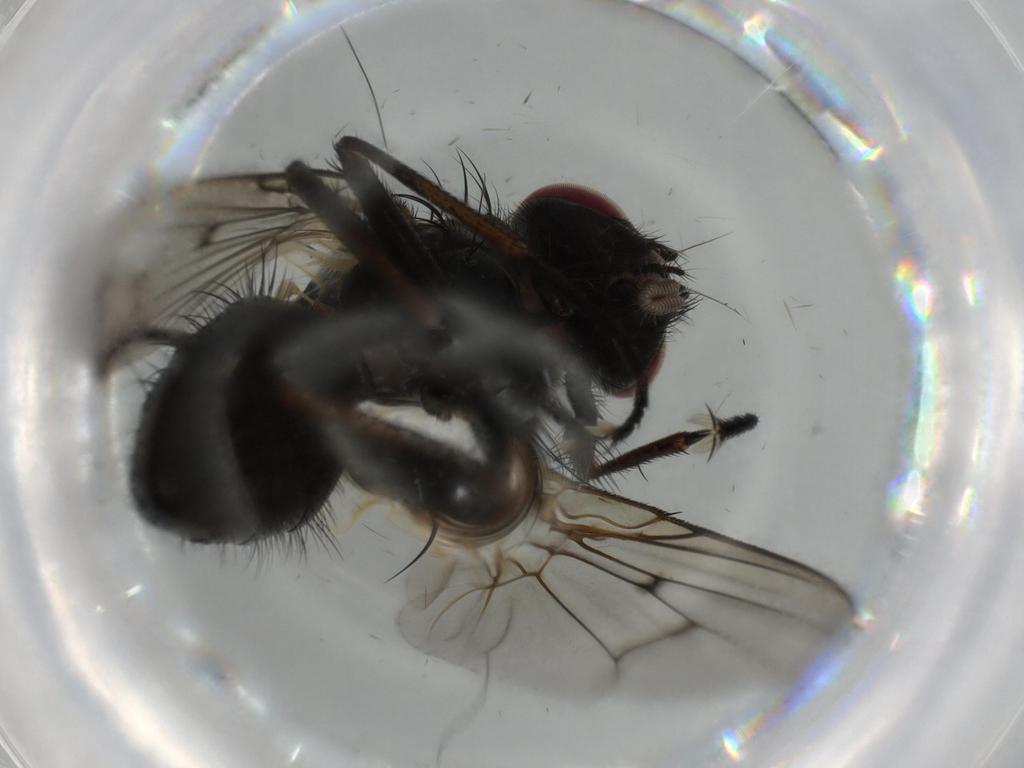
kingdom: Animalia
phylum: Arthropoda
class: Insecta
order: Diptera
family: Muscidae
